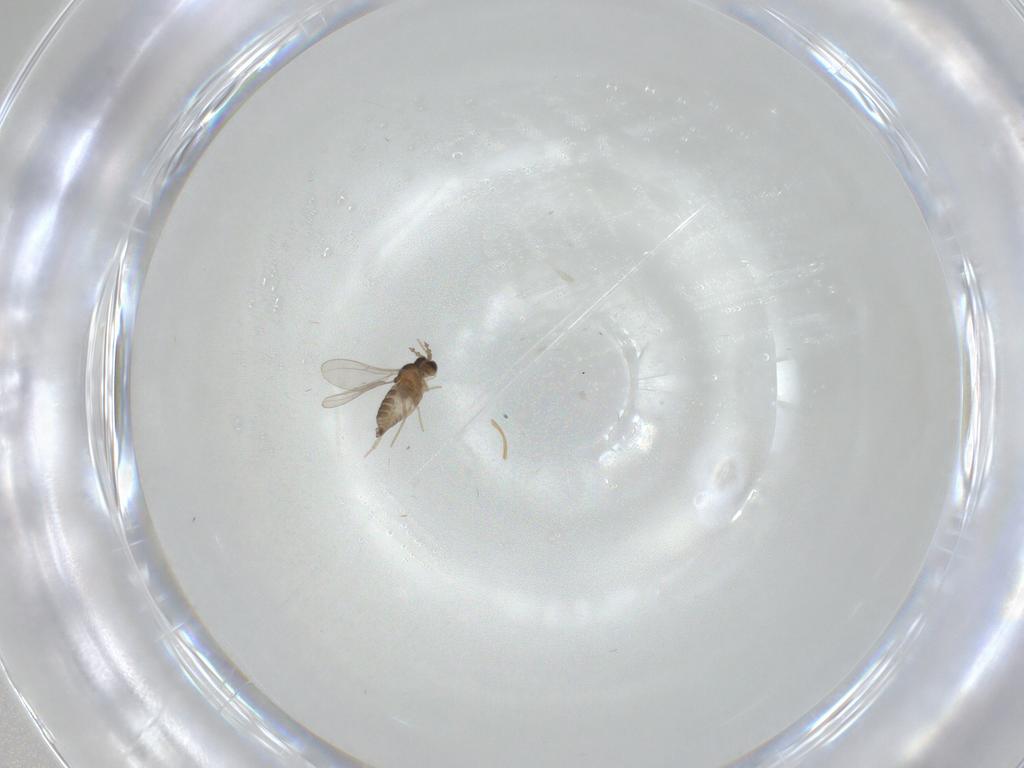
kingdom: Animalia
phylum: Arthropoda
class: Insecta
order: Diptera
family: Cecidomyiidae
